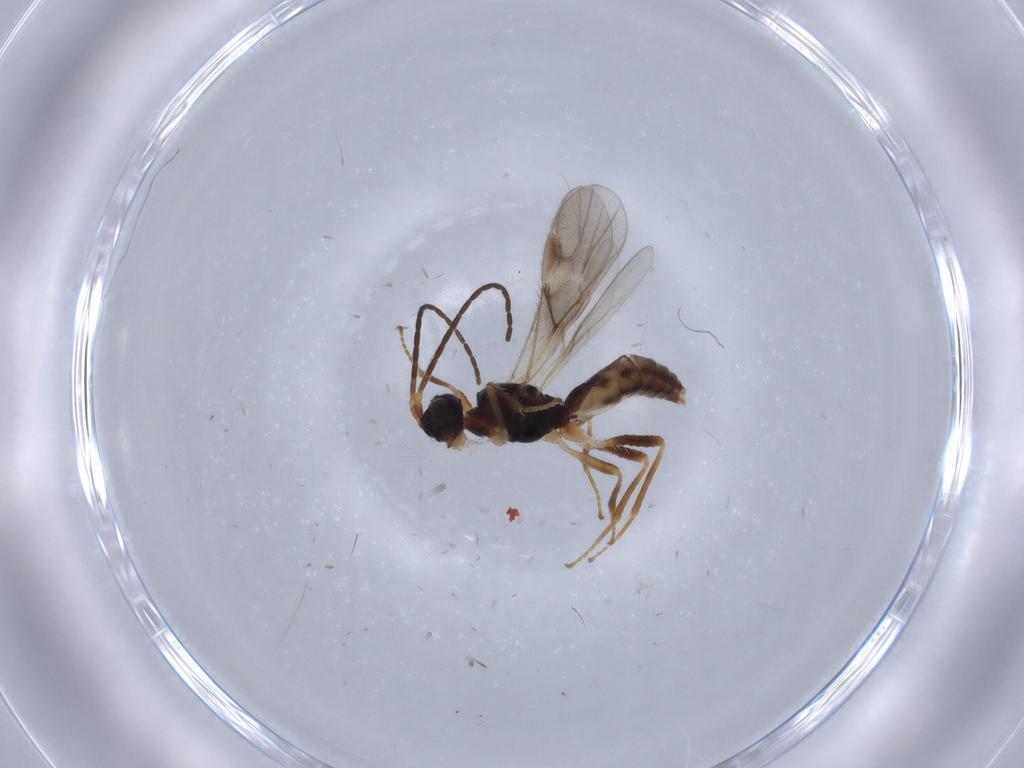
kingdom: Animalia
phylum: Arthropoda
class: Insecta
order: Hymenoptera
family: Braconidae
